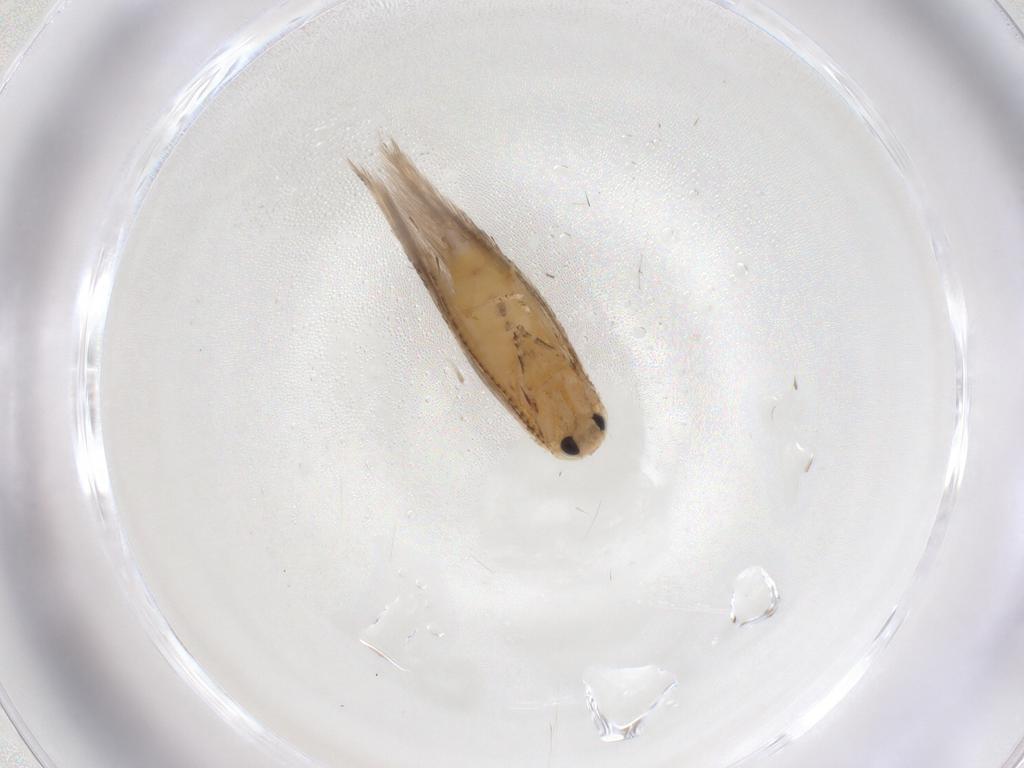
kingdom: Animalia
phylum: Arthropoda
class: Insecta
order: Lepidoptera
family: Bucculatricidae
